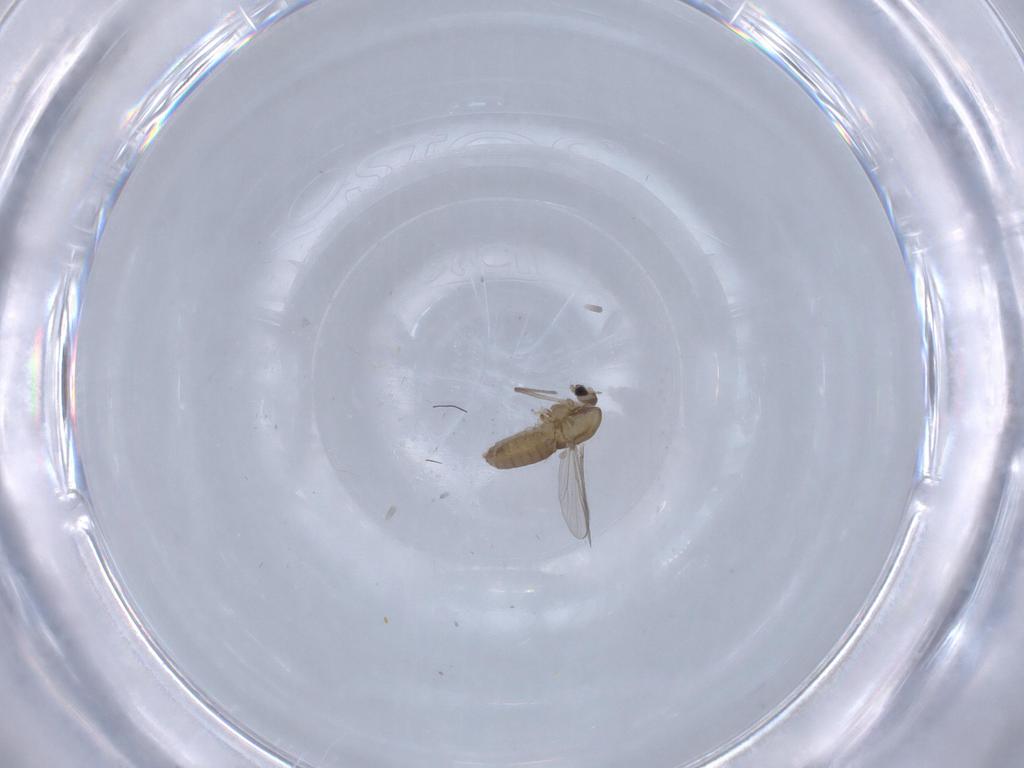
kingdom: Animalia
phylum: Arthropoda
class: Insecta
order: Diptera
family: Chironomidae
